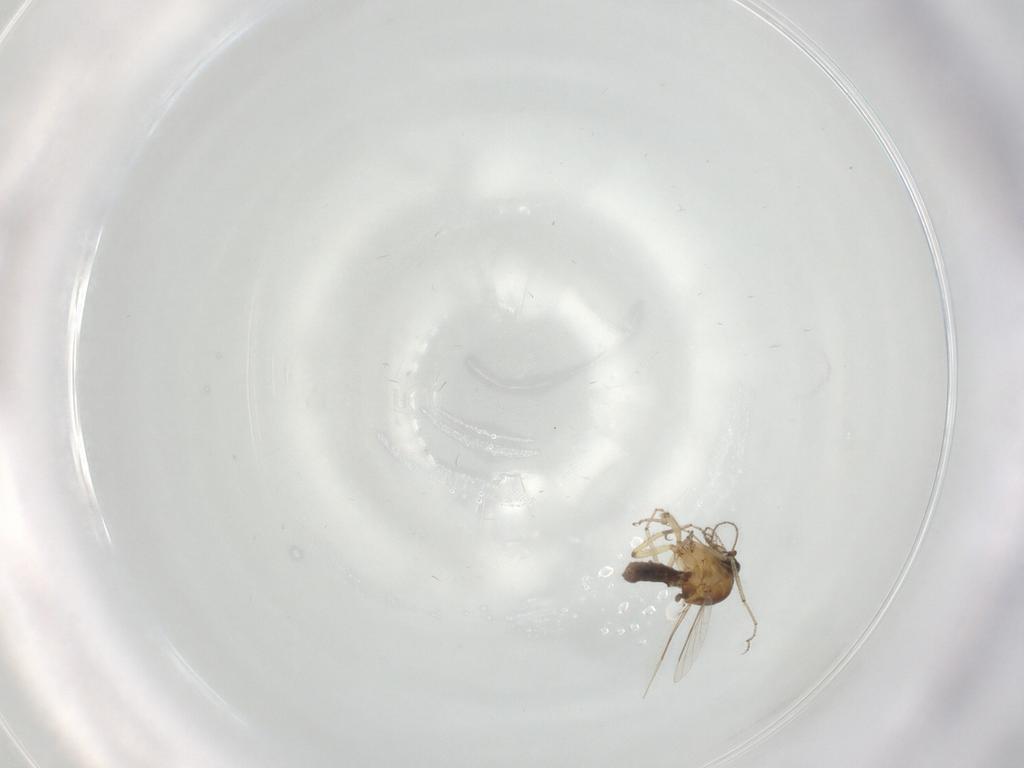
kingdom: Animalia
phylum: Arthropoda
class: Insecta
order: Diptera
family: Ceratopogonidae
